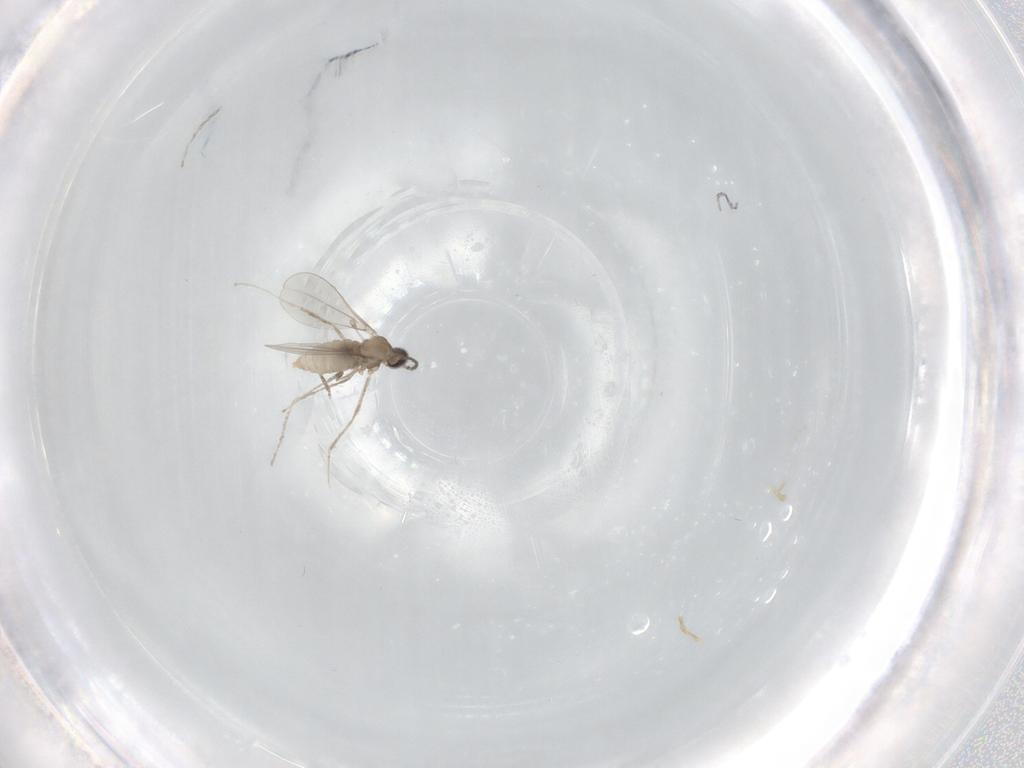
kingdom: Animalia
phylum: Arthropoda
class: Insecta
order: Diptera
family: Cecidomyiidae
